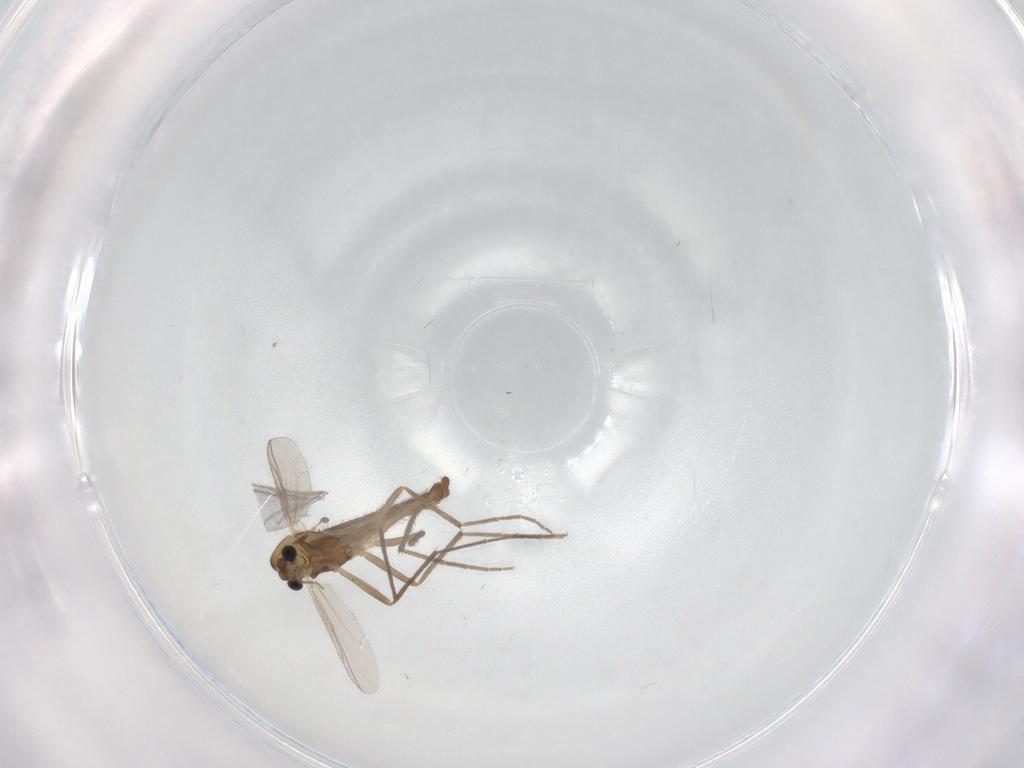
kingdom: Animalia
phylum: Arthropoda
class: Insecta
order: Diptera
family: Chironomidae
